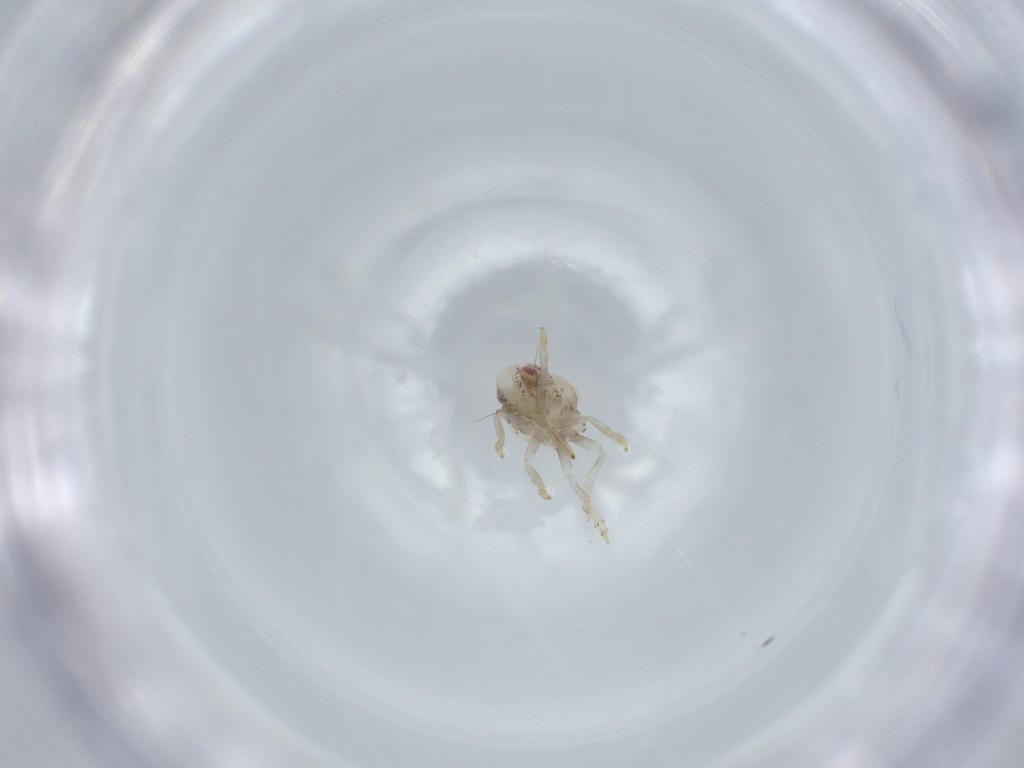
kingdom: Animalia
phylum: Arthropoda
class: Insecta
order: Hemiptera
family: Acanaloniidae
